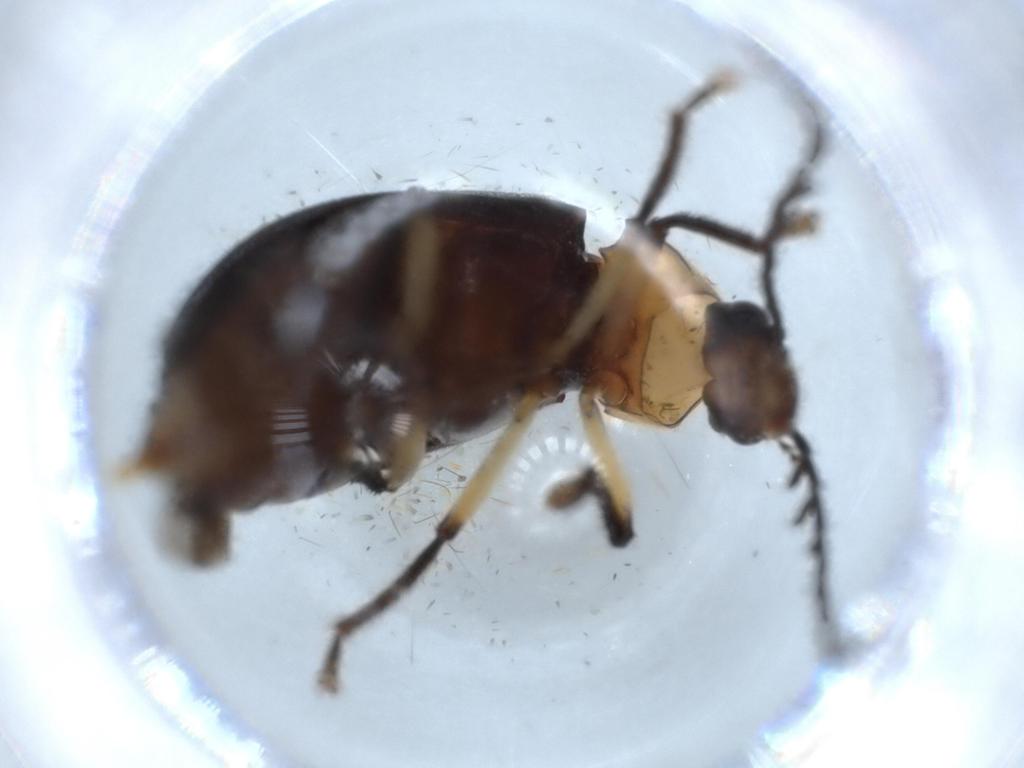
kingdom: Animalia
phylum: Arthropoda
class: Insecta
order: Coleoptera
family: Ptilodactylidae
